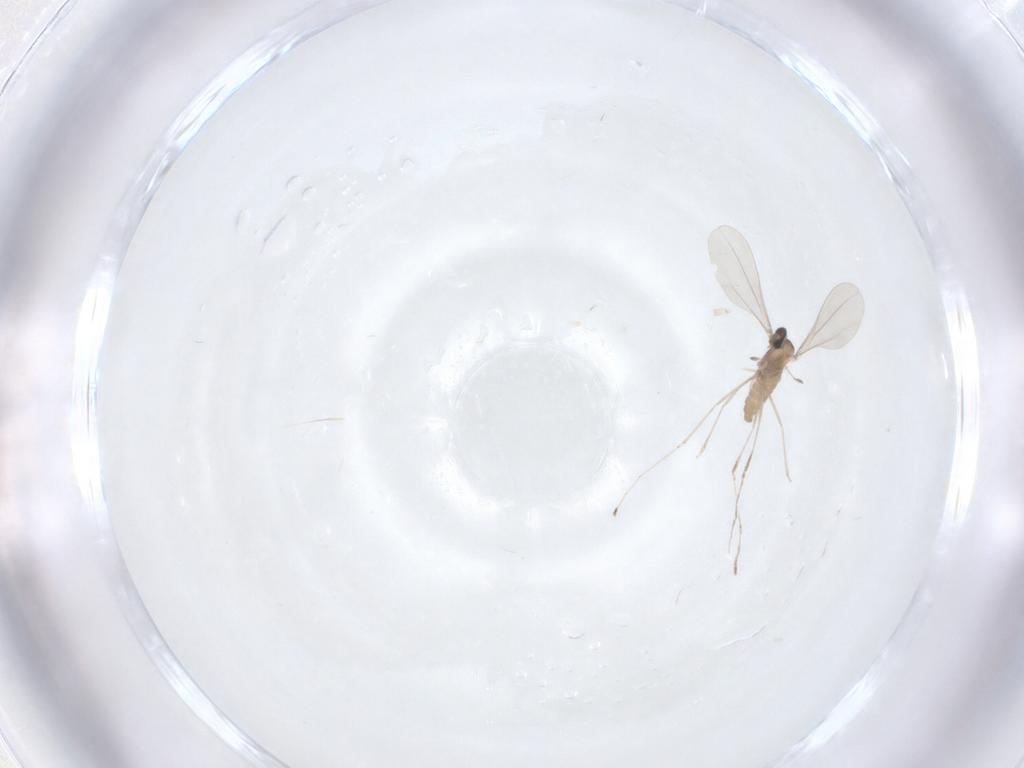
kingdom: Animalia
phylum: Arthropoda
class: Insecta
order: Diptera
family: Cecidomyiidae
